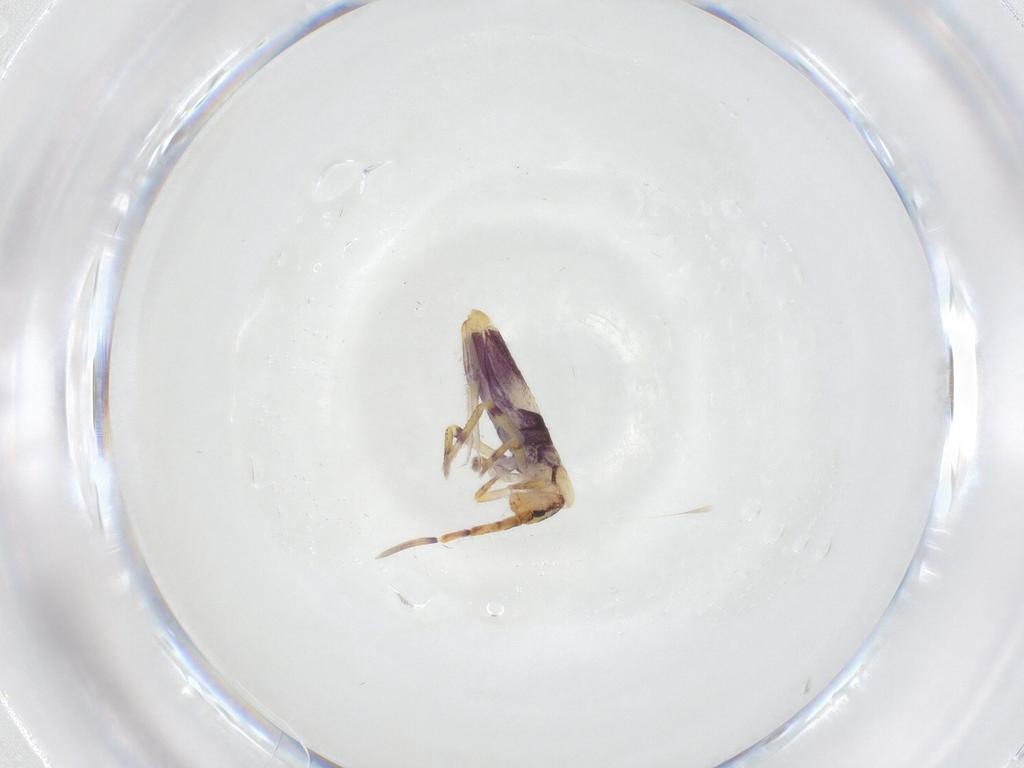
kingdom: Animalia
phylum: Arthropoda
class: Collembola
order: Entomobryomorpha
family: Entomobryidae
